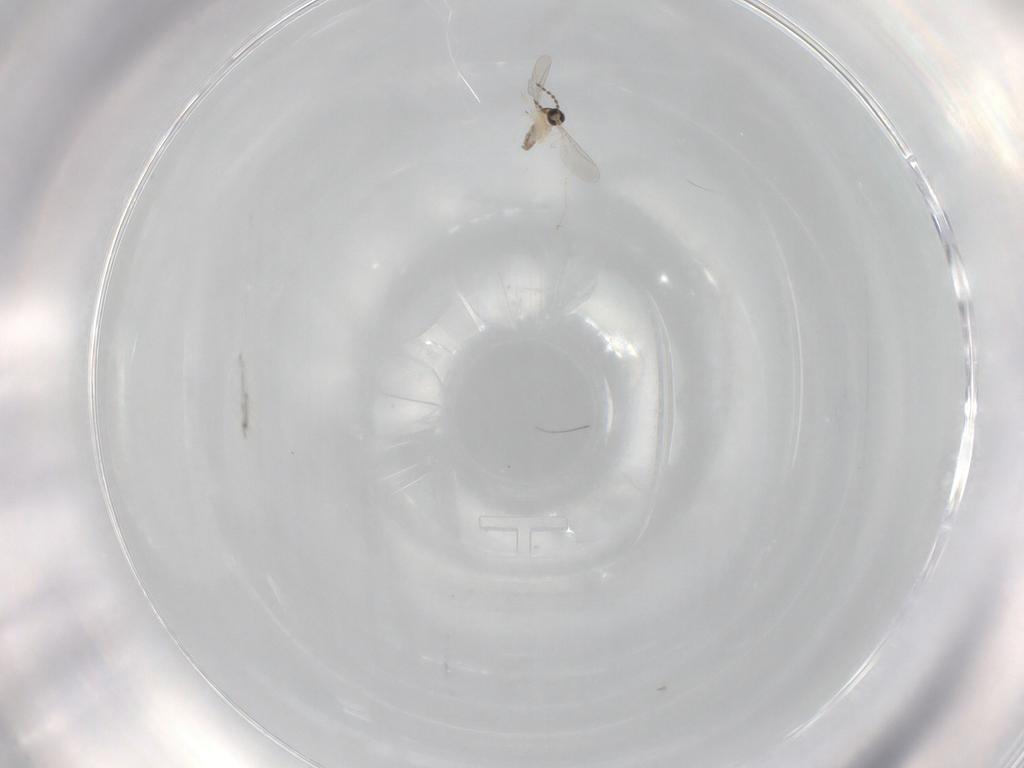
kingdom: Animalia
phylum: Arthropoda
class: Insecta
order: Diptera
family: Cecidomyiidae
